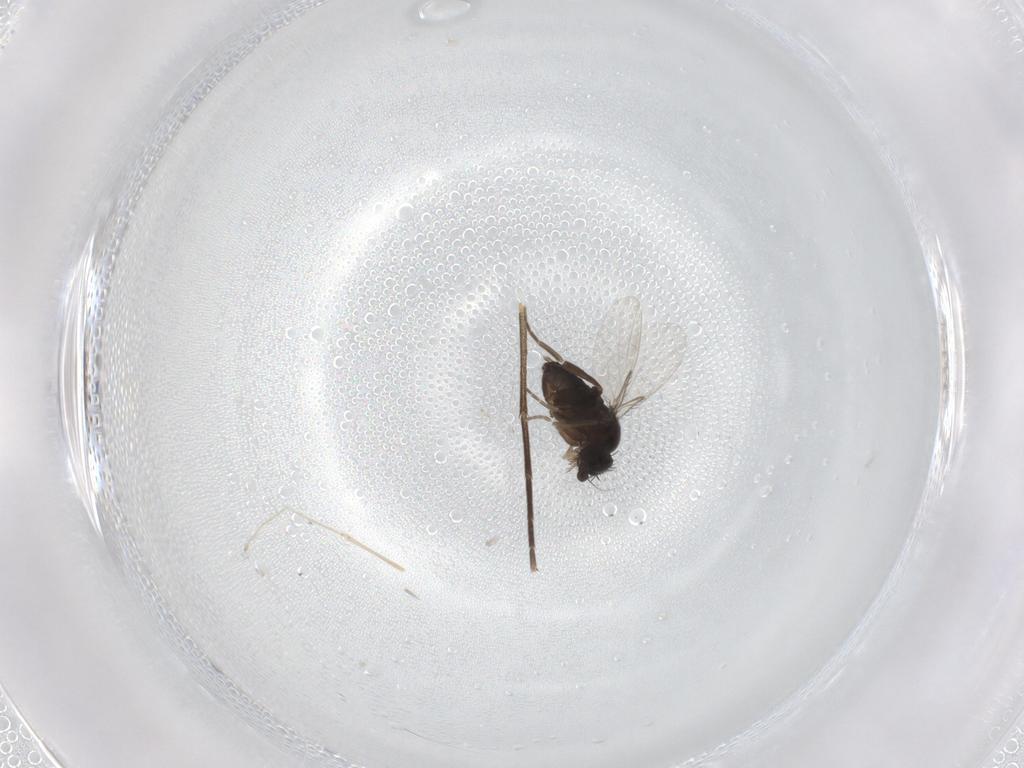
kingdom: Animalia
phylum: Arthropoda
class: Insecta
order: Diptera
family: Phoridae
